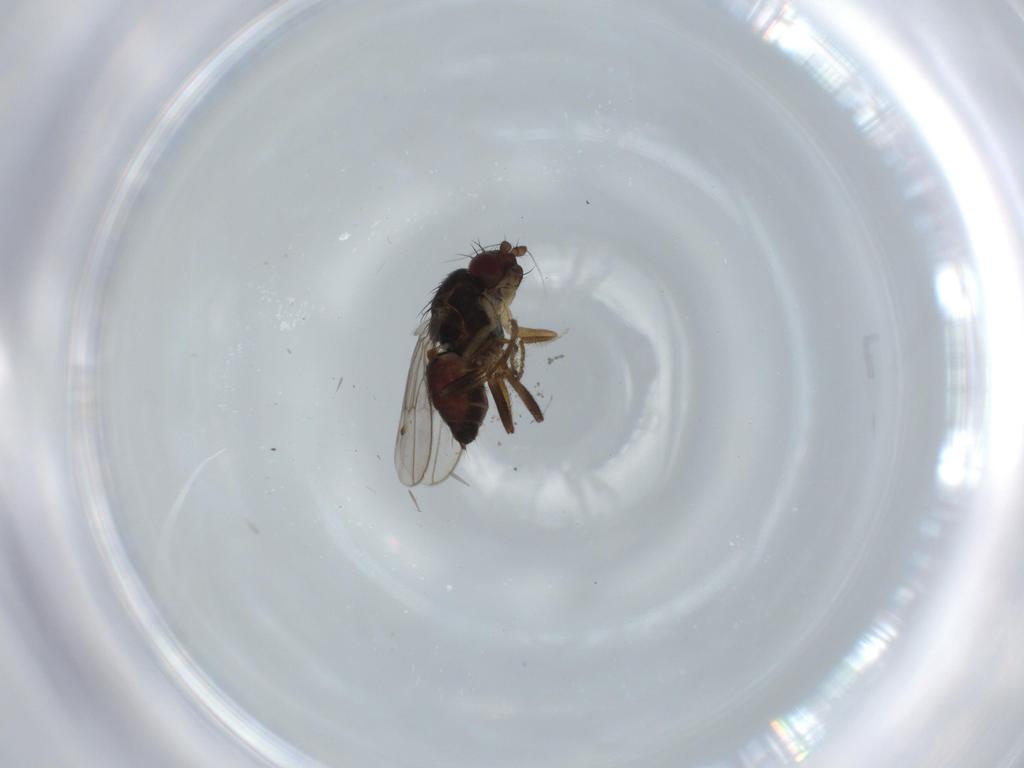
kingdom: Animalia
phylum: Arthropoda
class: Insecta
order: Diptera
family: Sphaeroceridae
